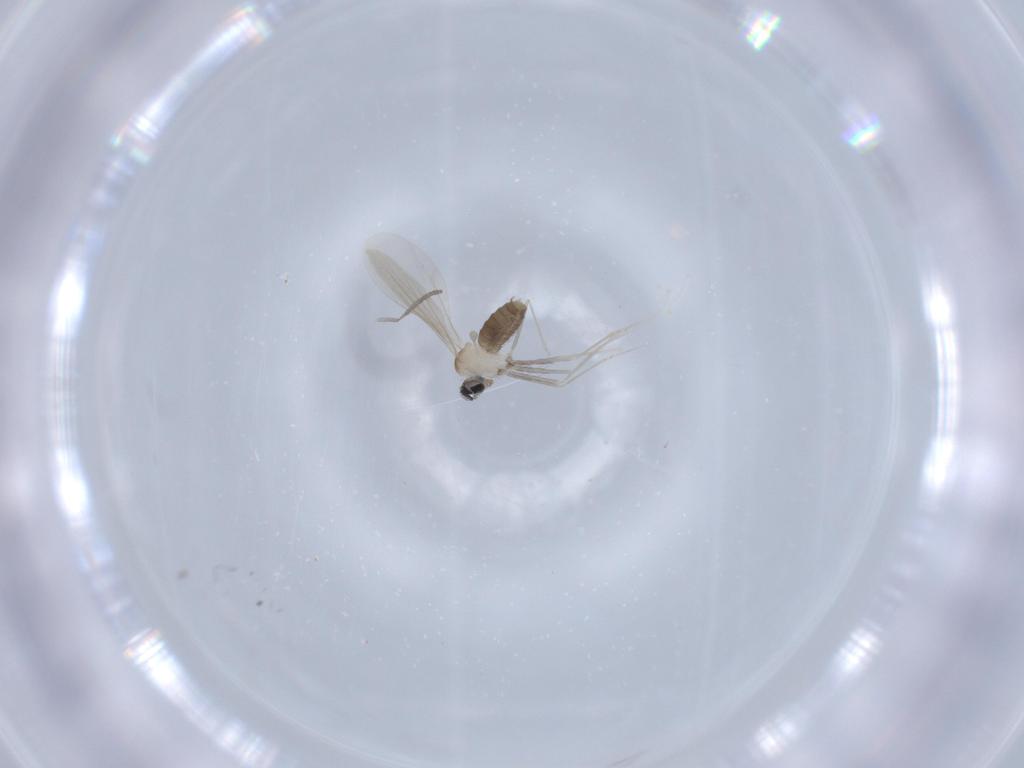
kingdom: Animalia
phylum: Arthropoda
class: Insecta
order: Diptera
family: Cecidomyiidae
